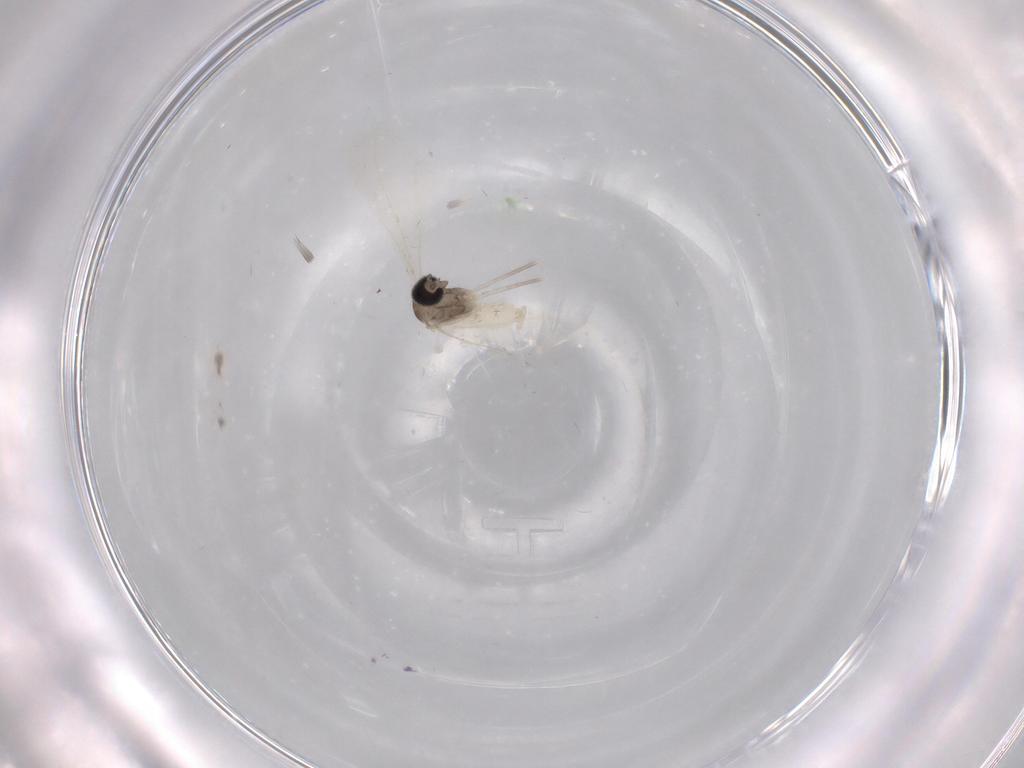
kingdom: Animalia
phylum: Arthropoda
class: Insecta
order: Diptera
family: Cecidomyiidae
